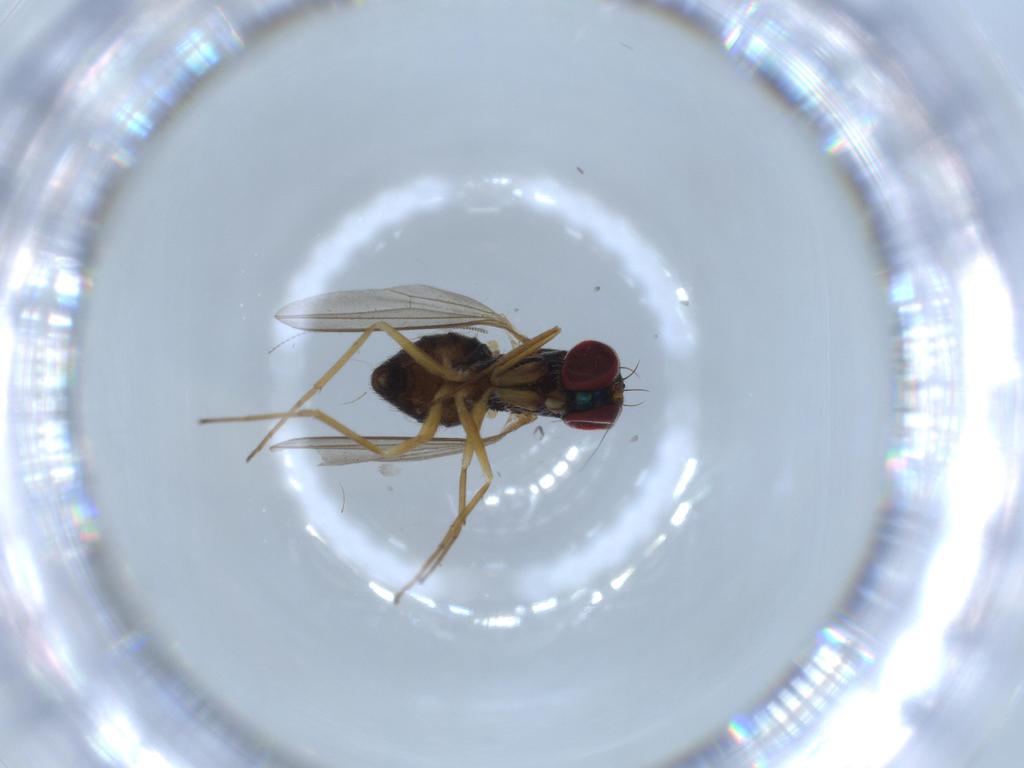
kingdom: Animalia
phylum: Arthropoda
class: Insecta
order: Diptera
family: Dolichopodidae
